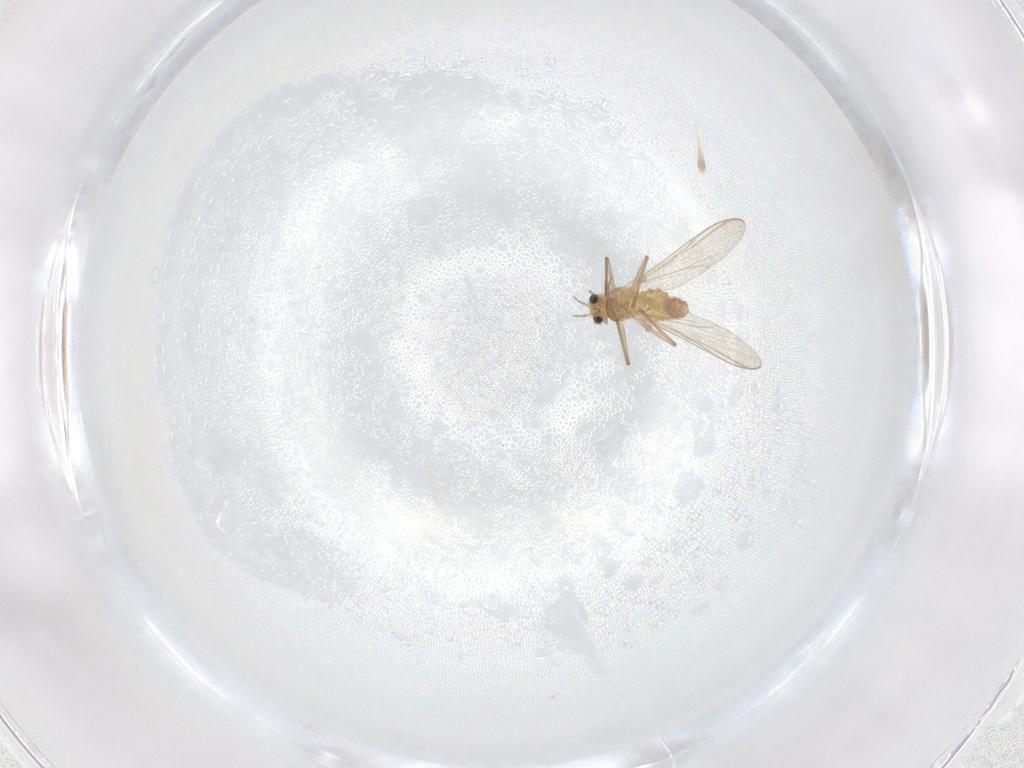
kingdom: Animalia
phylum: Arthropoda
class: Insecta
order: Diptera
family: Chironomidae
